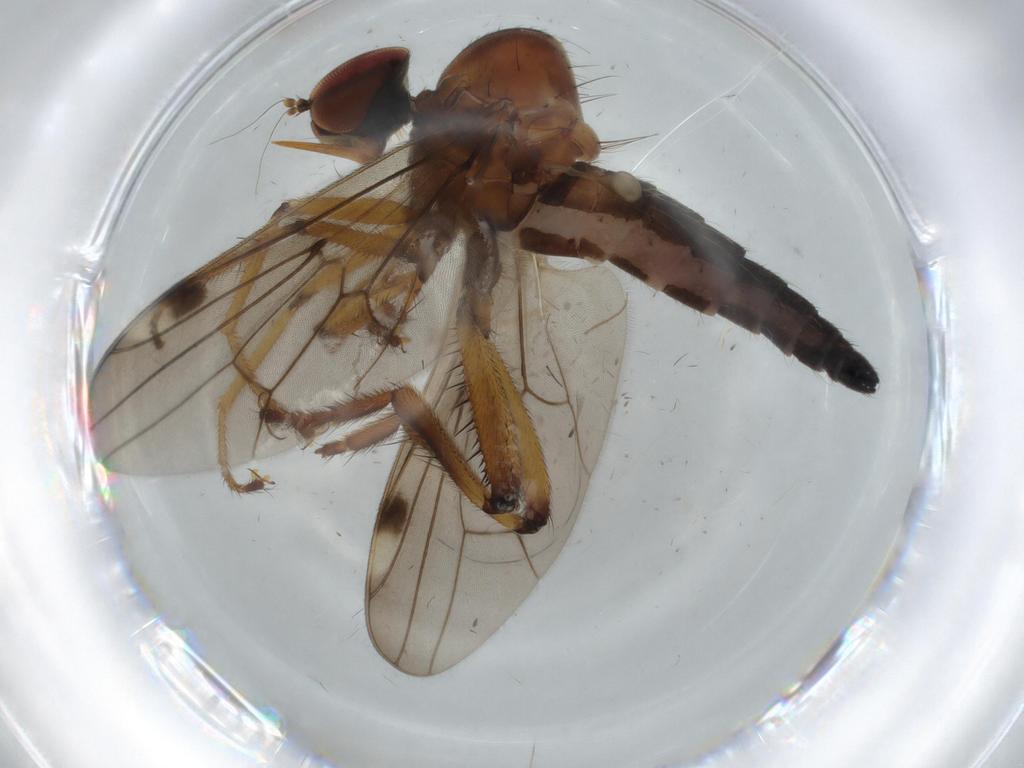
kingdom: Animalia
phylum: Arthropoda
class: Insecta
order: Diptera
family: Hybotidae
